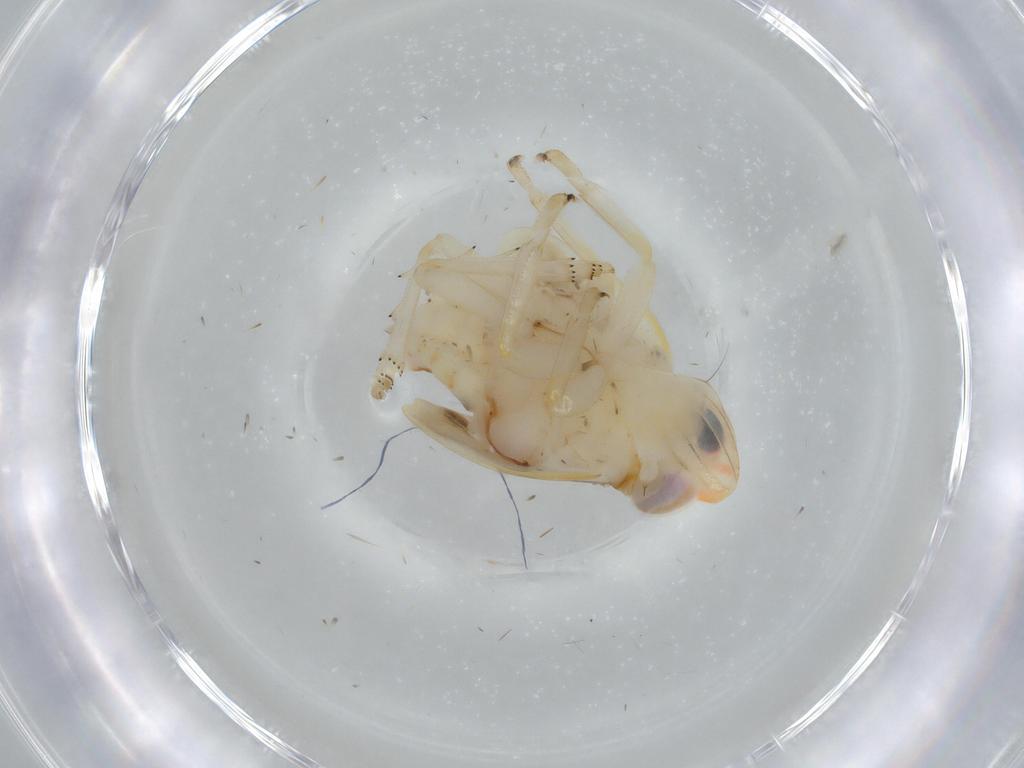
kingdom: Animalia
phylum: Arthropoda
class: Insecta
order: Hemiptera
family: Nogodinidae
